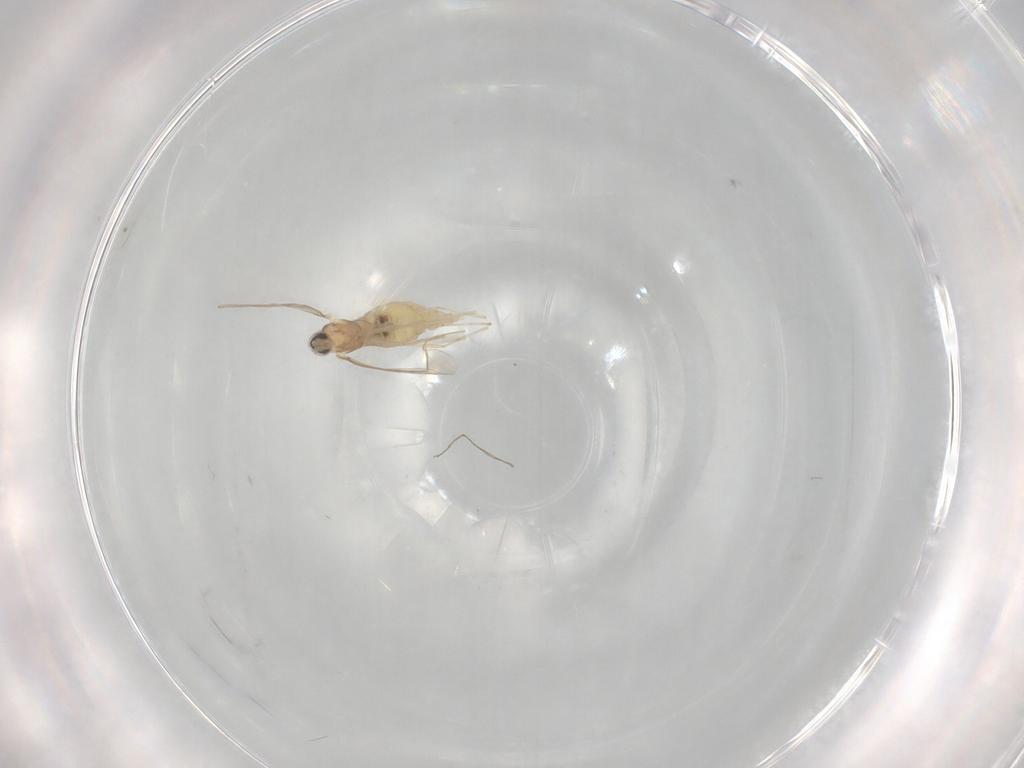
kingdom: Animalia
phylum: Arthropoda
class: Insecta
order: Diptera
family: Cecidomyiidae
